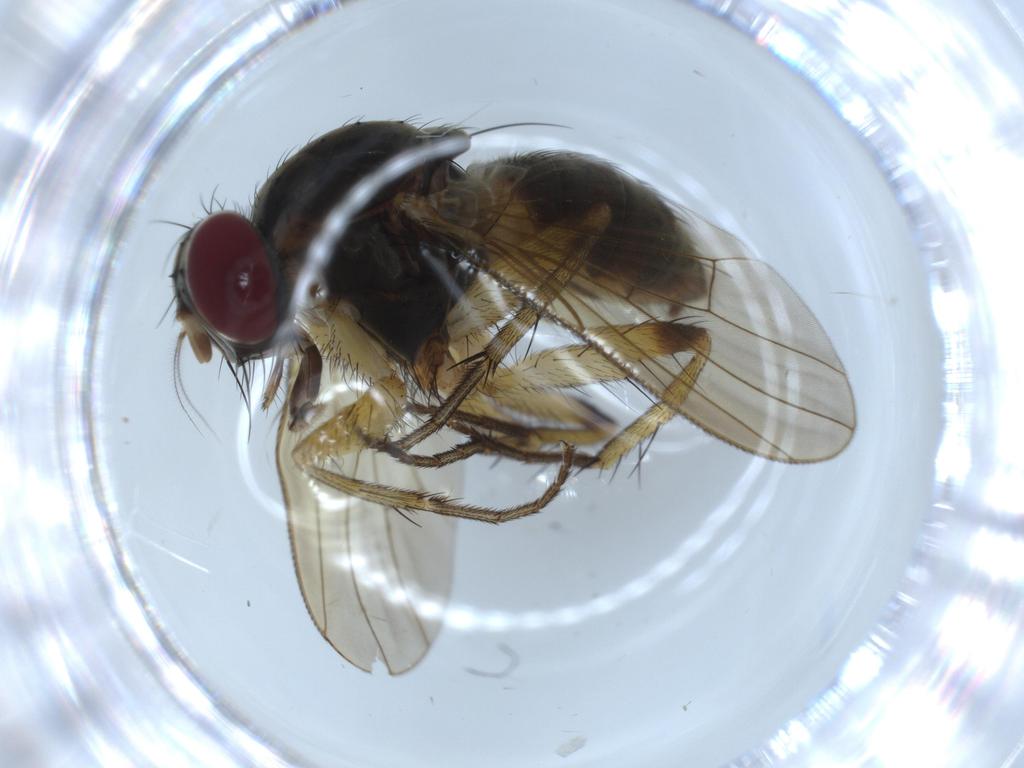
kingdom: Animalia
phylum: Arthropoda
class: Insecta
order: Diptera
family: Muscidae
